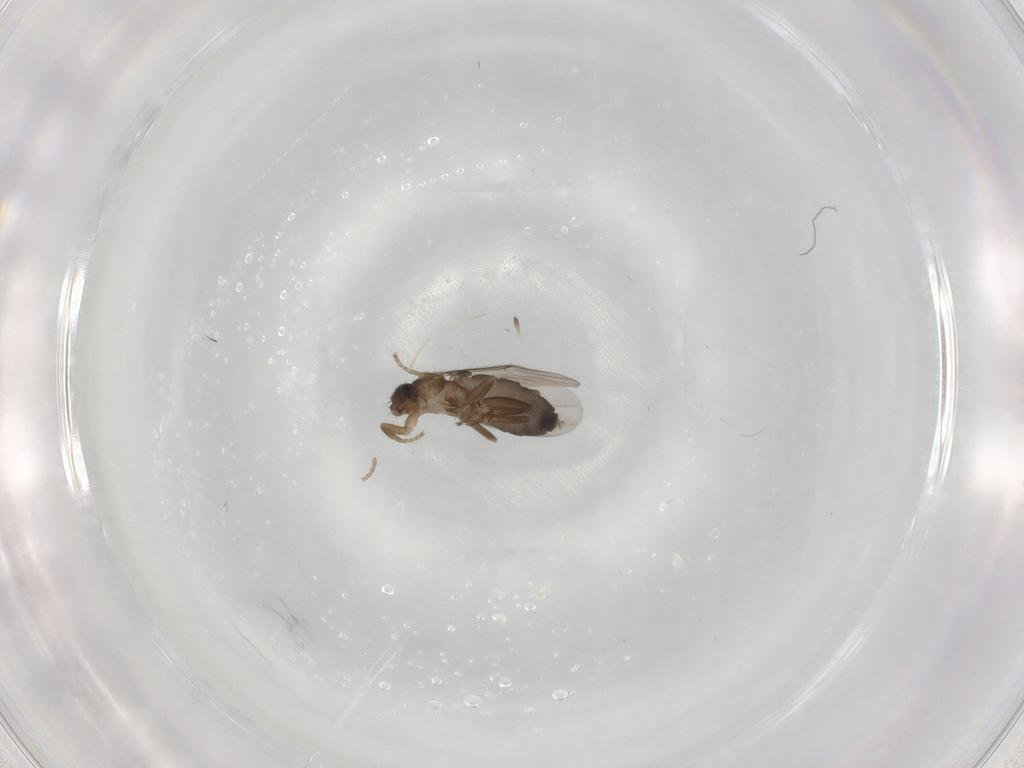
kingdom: Animalia
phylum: Arthropoda
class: Insecta
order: Diptera
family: Phoridae
